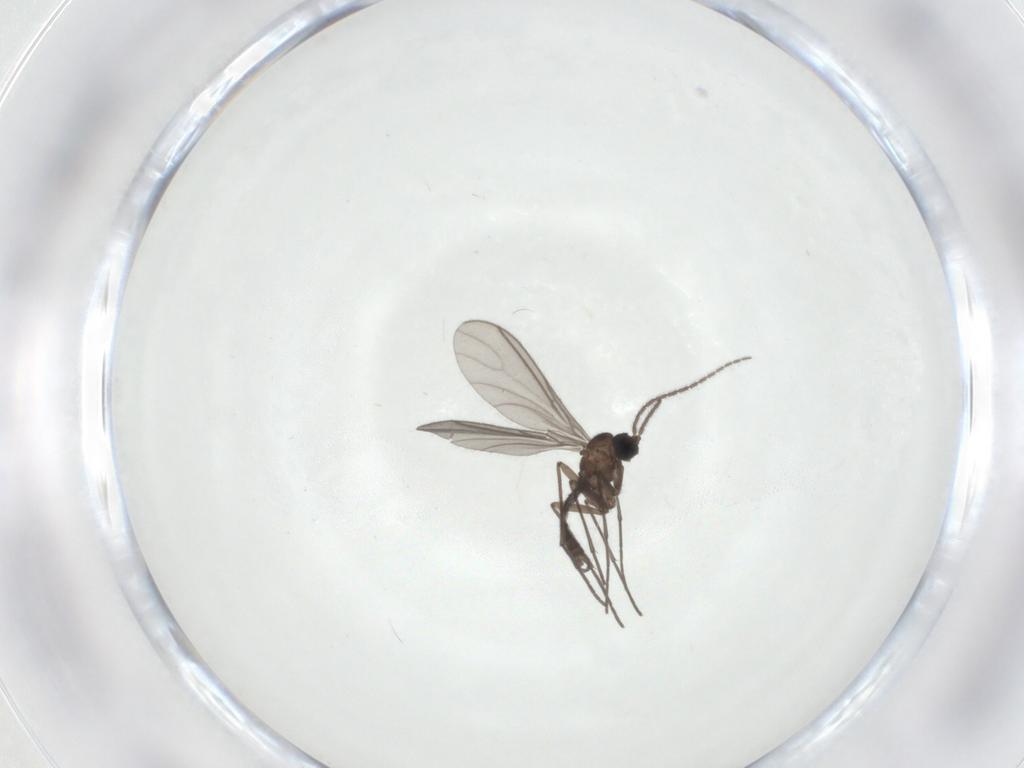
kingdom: Animalia
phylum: Arthropoda
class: Insecta
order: Diptera
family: Sciaridae
